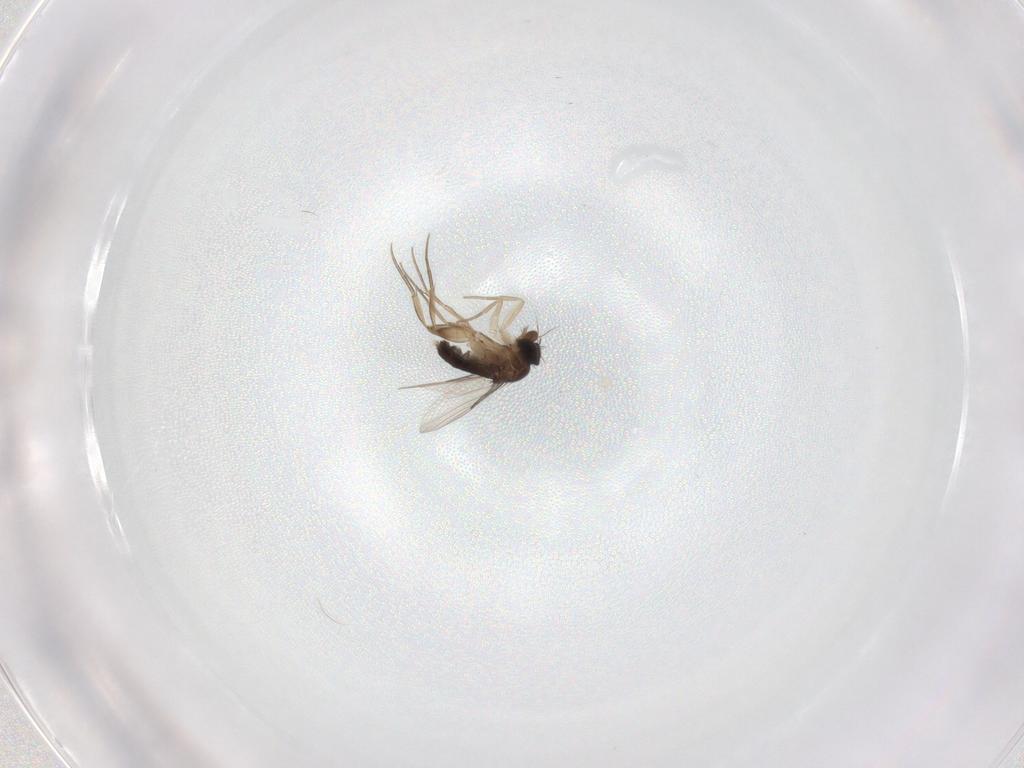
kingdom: Animalia
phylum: Arthropoda
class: Insecta
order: Diptera
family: Phoridae
